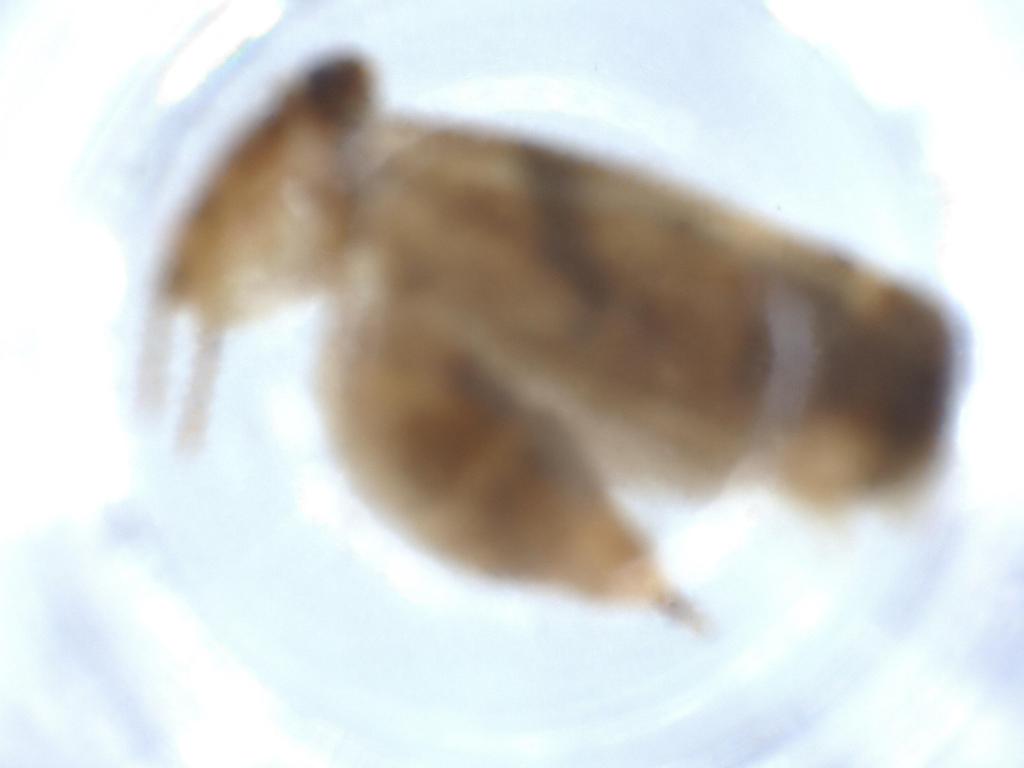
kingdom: Animalia
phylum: Arthropoda
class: Insecta
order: Lepidoptera
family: Gelechiidae
